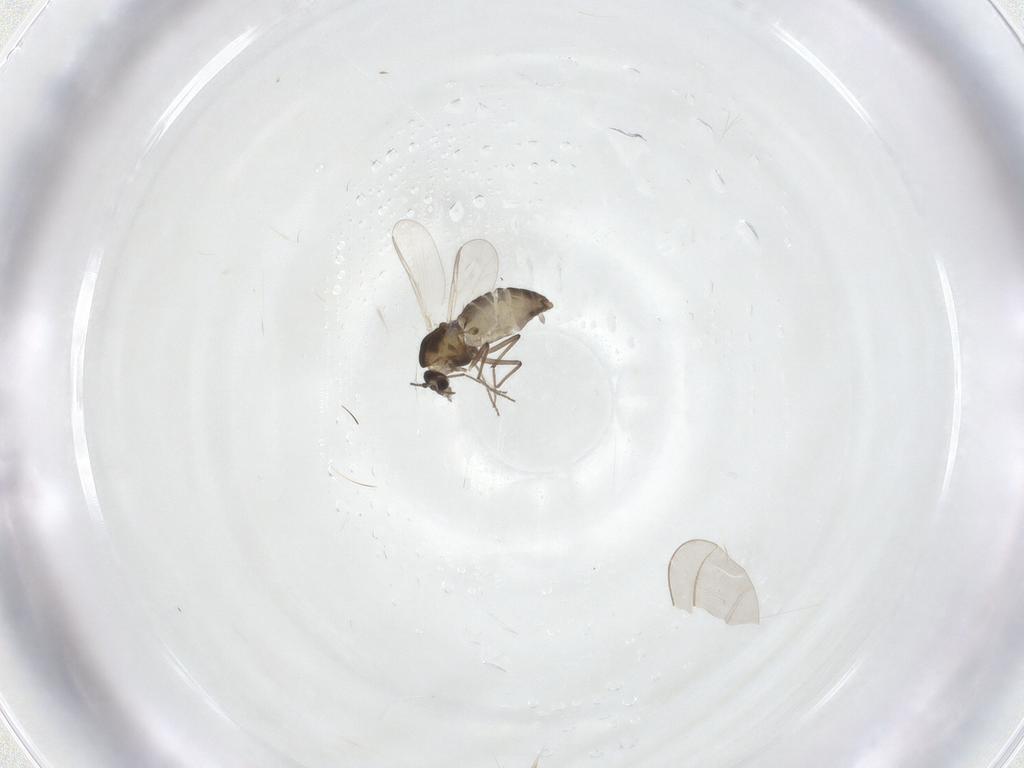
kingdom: Animalia
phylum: Arthropoda
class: Insecta
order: Diptera
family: Chironomidae
